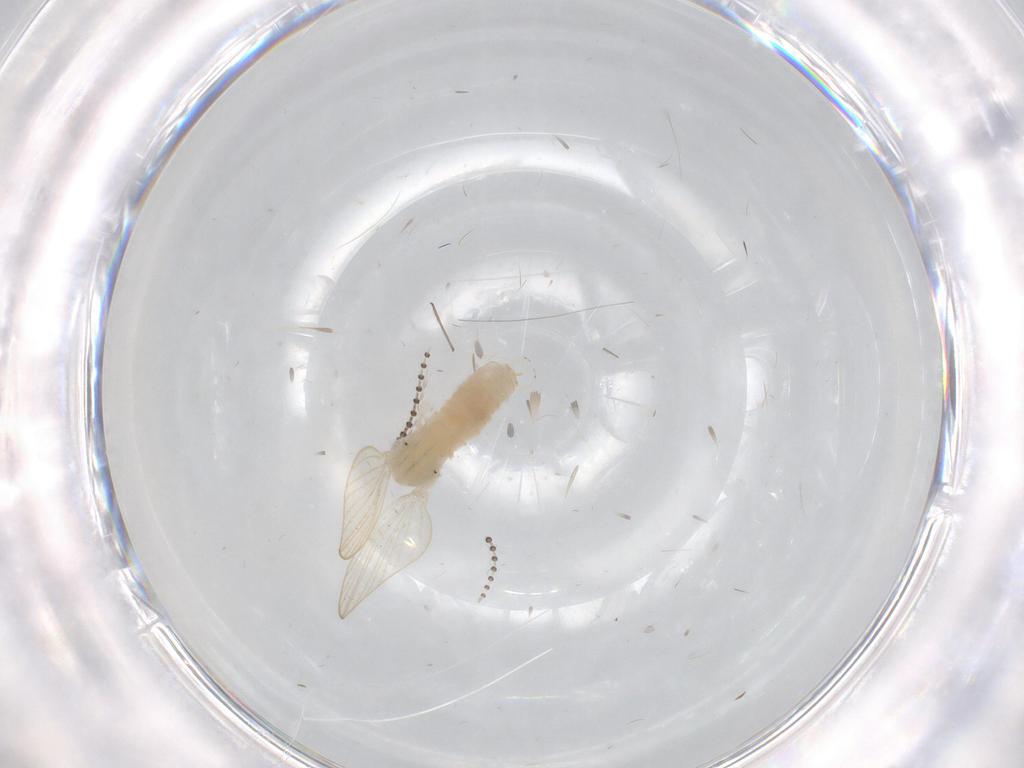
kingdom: Animalia
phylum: Arthropoda
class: Insecta
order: Diptera
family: Psychodidae
